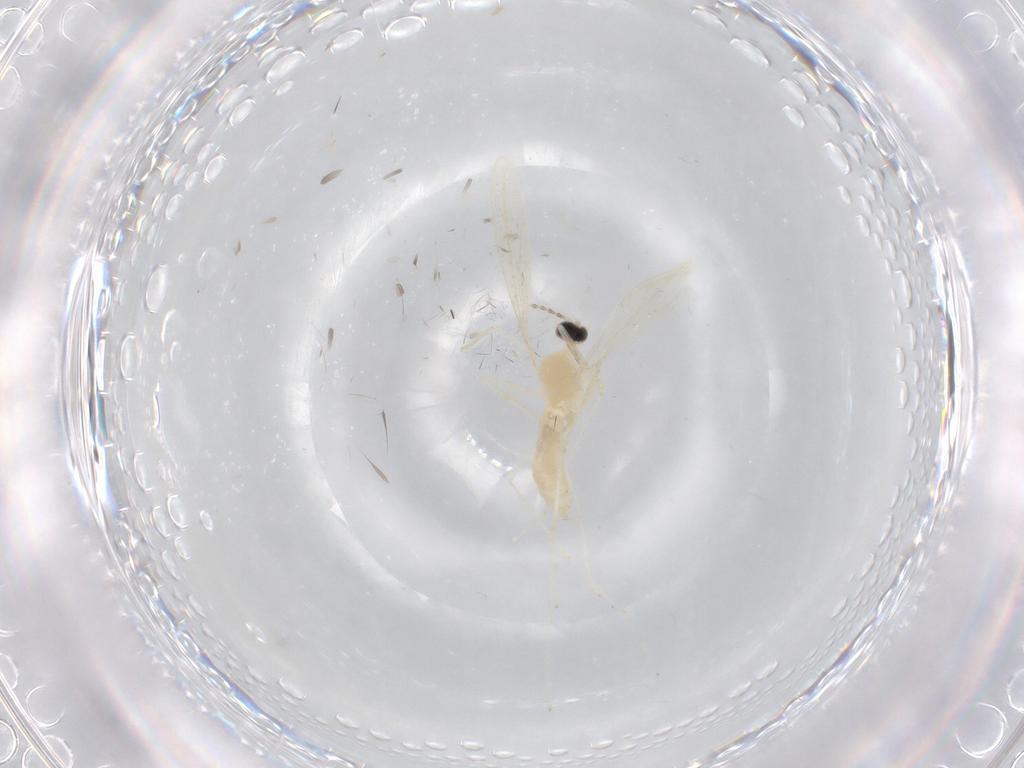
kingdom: Animalia
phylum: Arthropoda
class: Insecta
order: Diptera
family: Cecidomyiidae
